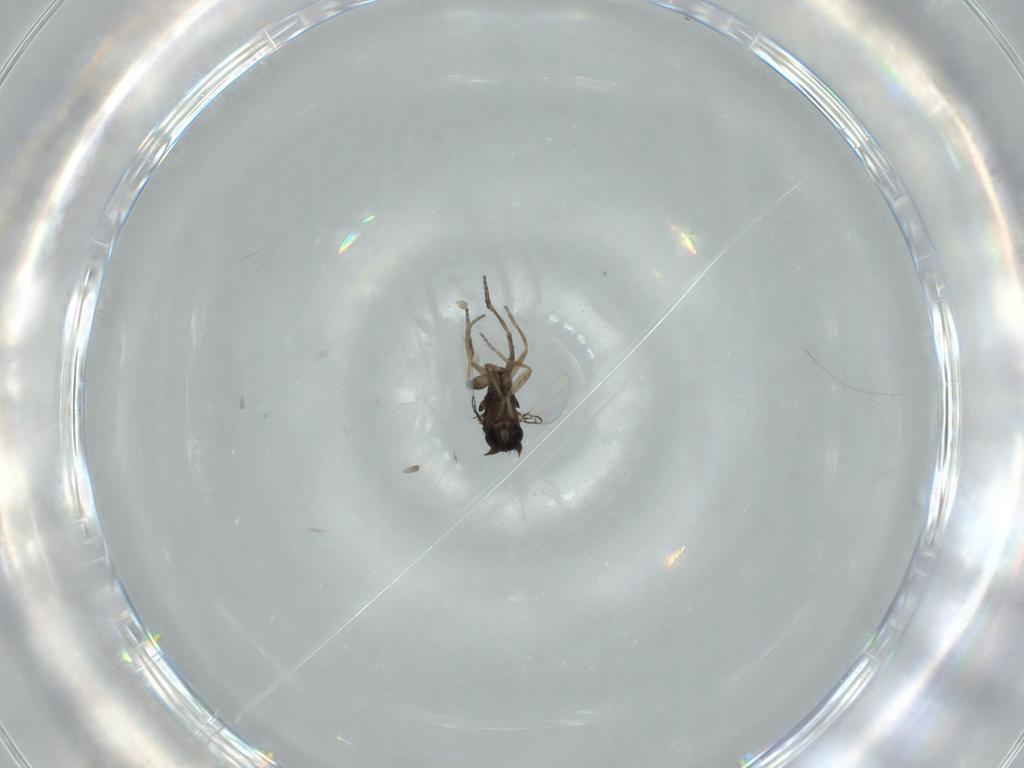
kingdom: Animalia
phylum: Arthropoda
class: Insecta
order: Diptera
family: Phoridae
